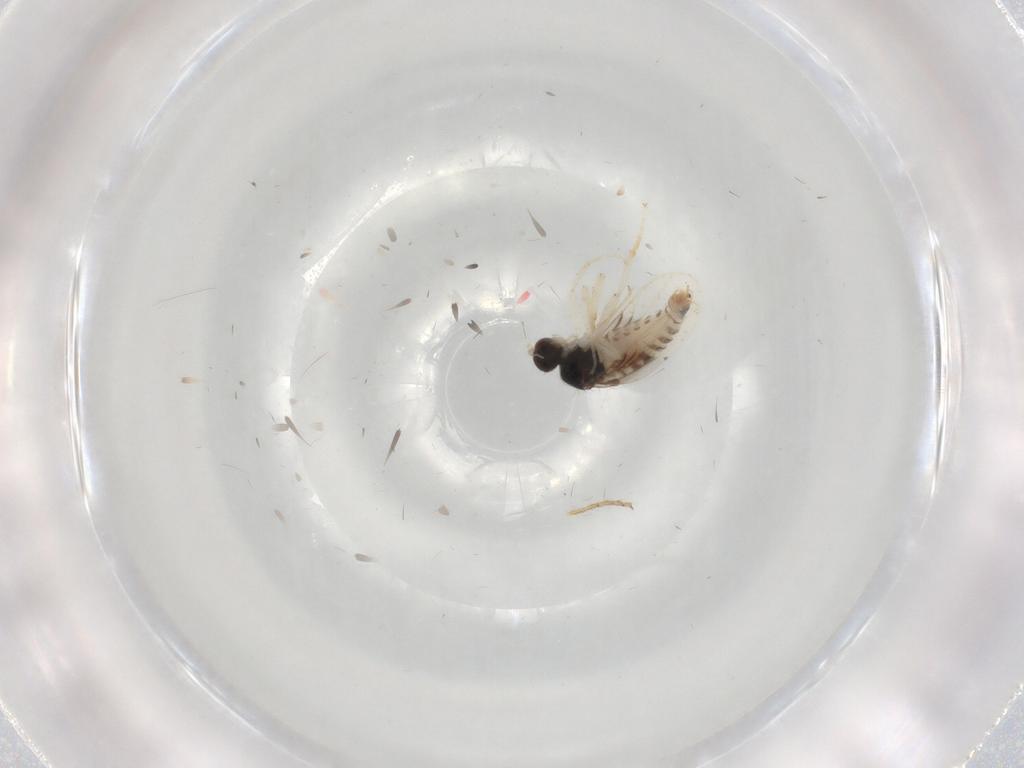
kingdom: Animalia
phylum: Arthropoda
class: Insecta
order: Diptera
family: Hybotidae
